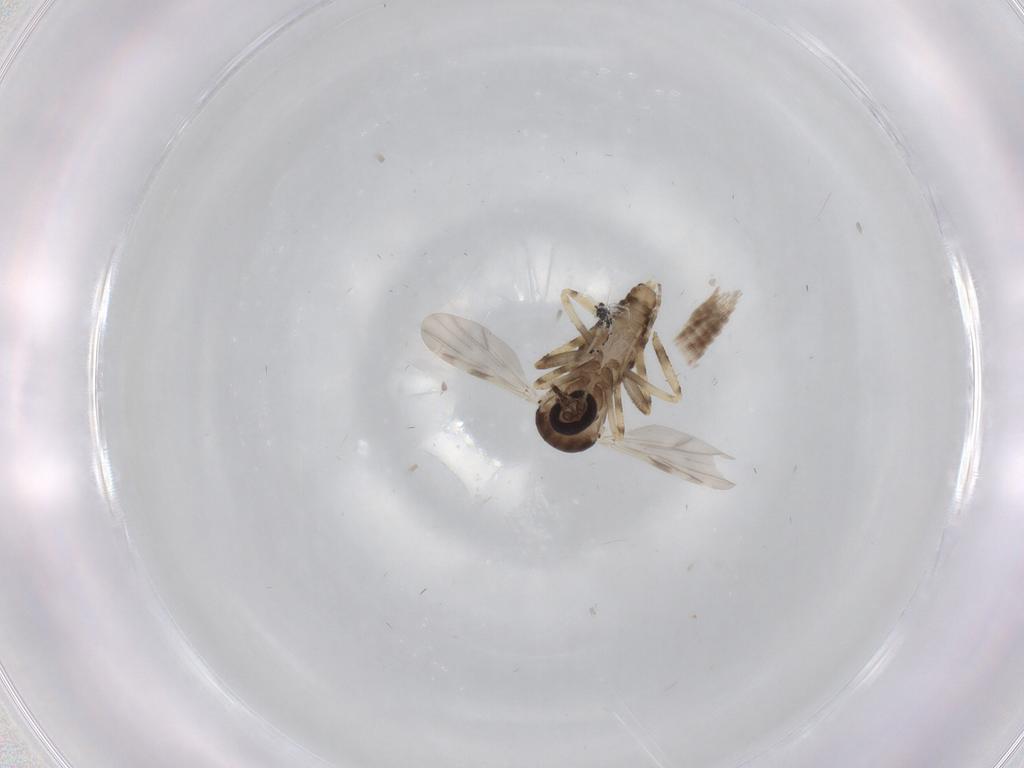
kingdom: Animalia
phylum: Arthropoda
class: Insecta
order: Diptera
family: Ceratopogonidae
